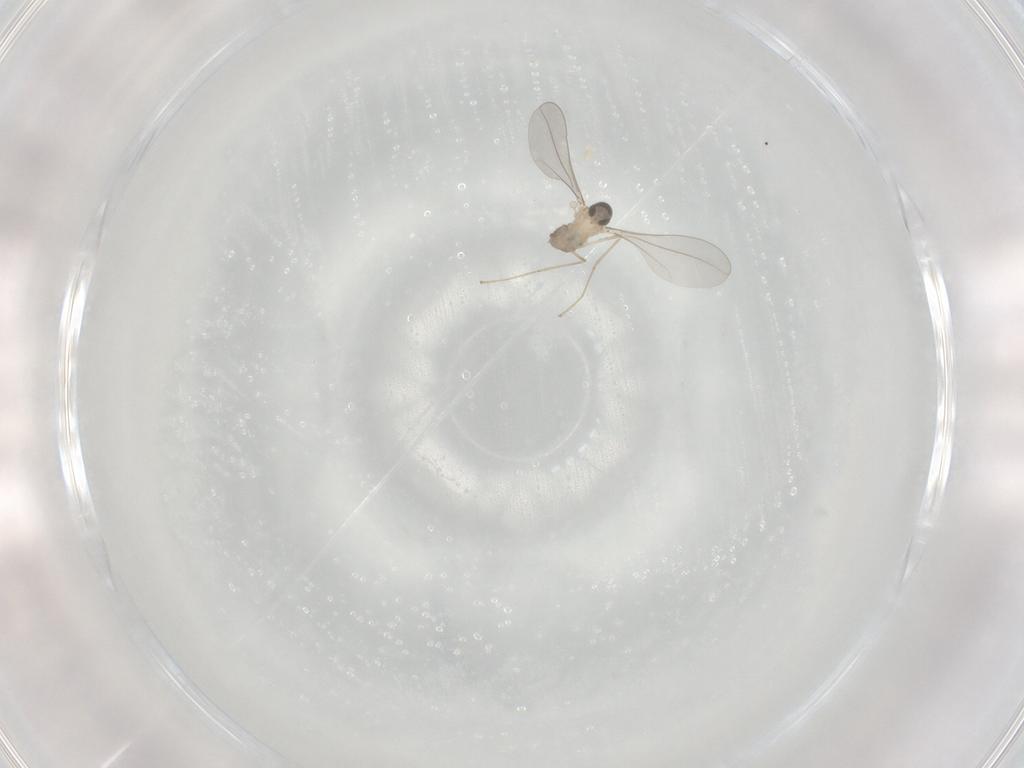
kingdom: Animalia
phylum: Arthropoda
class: Insecta
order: Diptera
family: Cecidomyiidae
